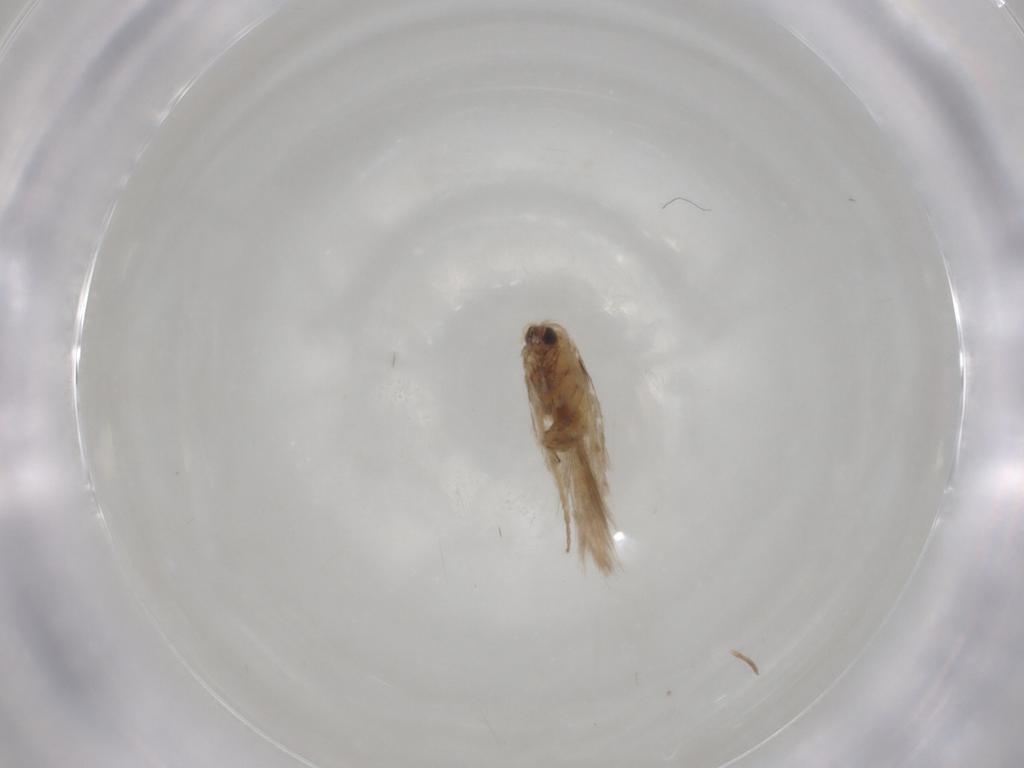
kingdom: Animalia
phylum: Arthropoda
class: Insecta
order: Lepidoptera
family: Nepticulidae
